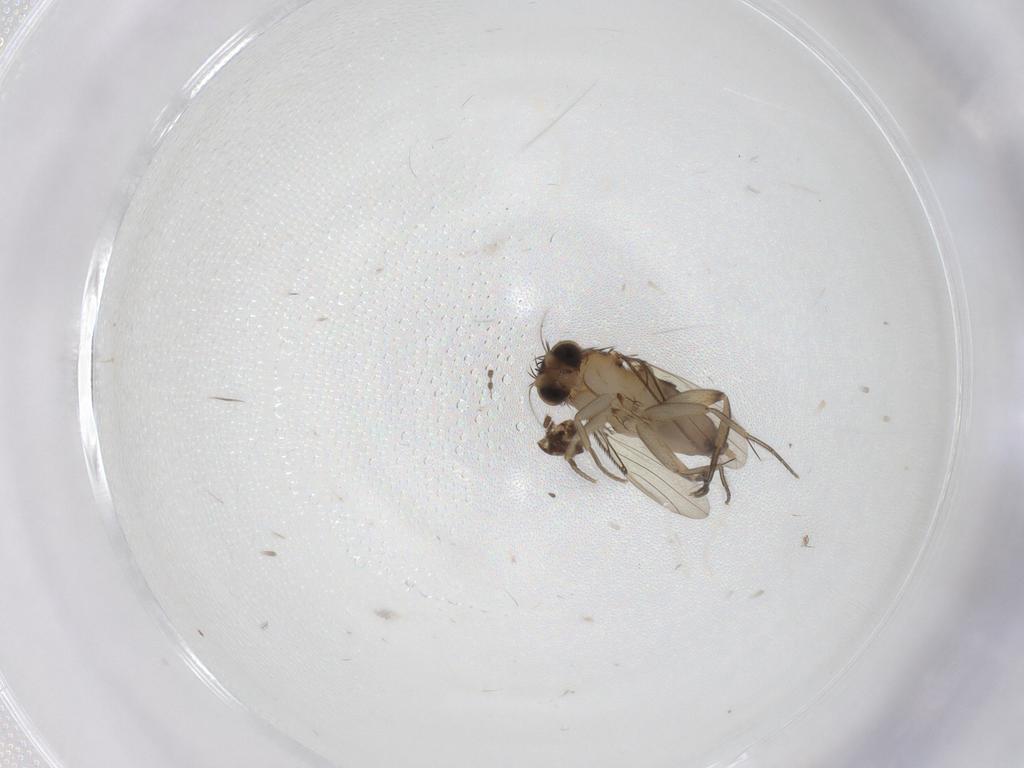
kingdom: Animalia
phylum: Arthropoda
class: Insecta
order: Diptera
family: Phoridae
